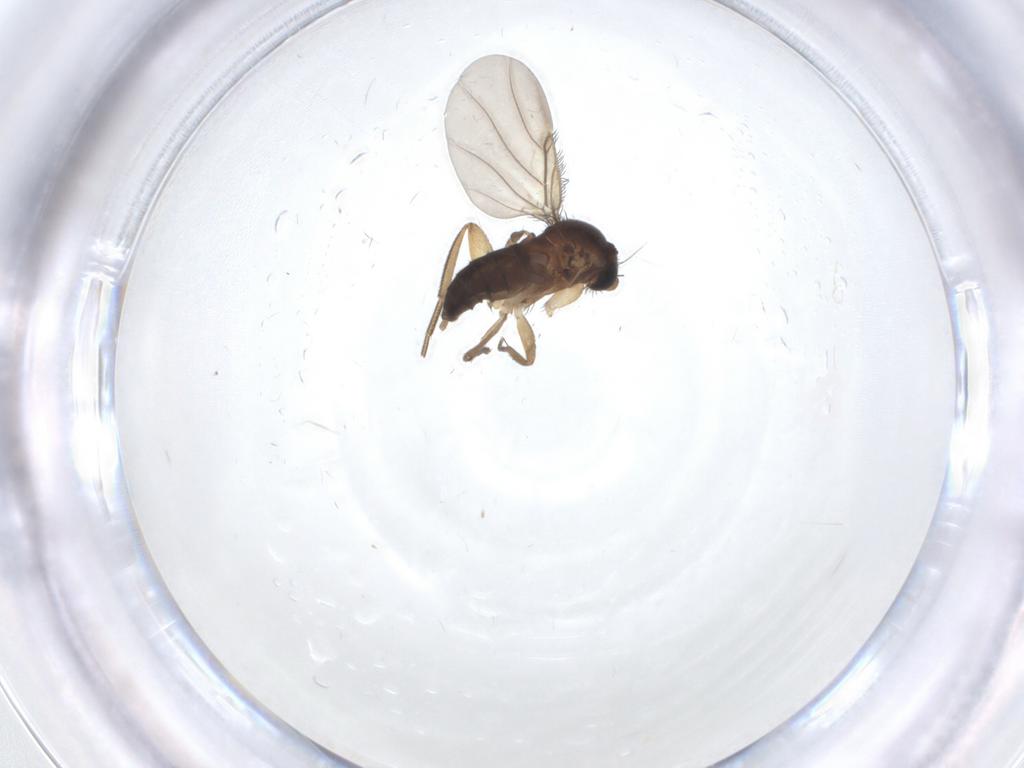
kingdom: Animalia
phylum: Arthropoda
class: Insecta
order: Diptera
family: Phoridae
